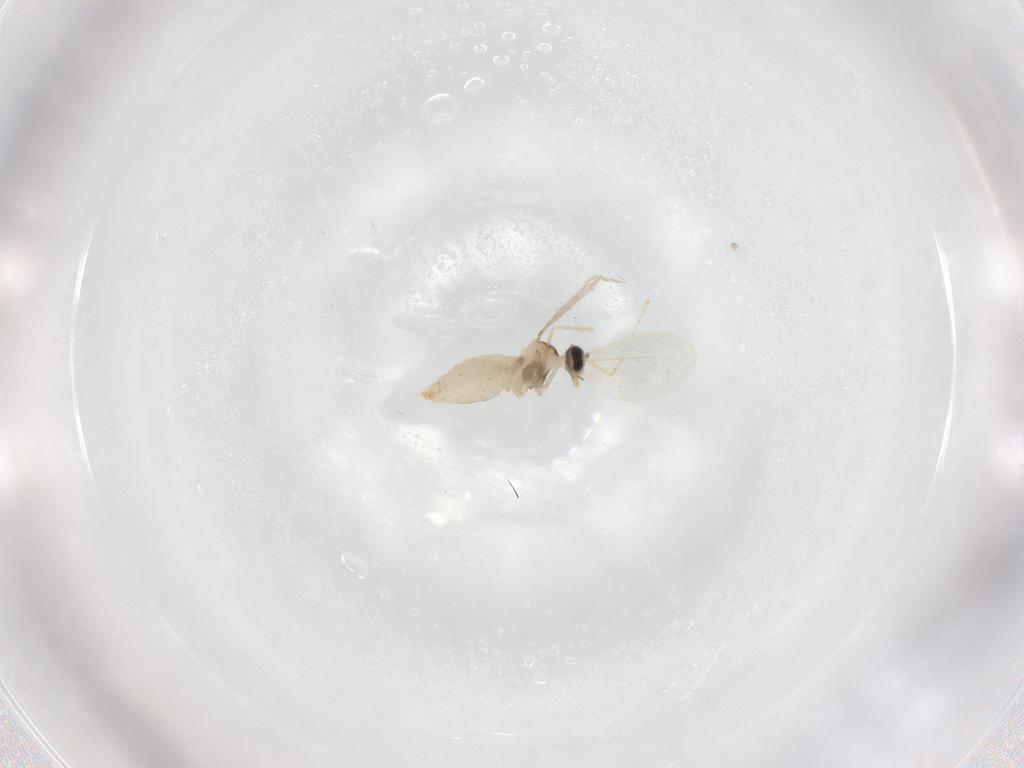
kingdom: Animalia
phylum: Arthropoda
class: Insecta
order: Diptera
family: Cecidomyiidae
